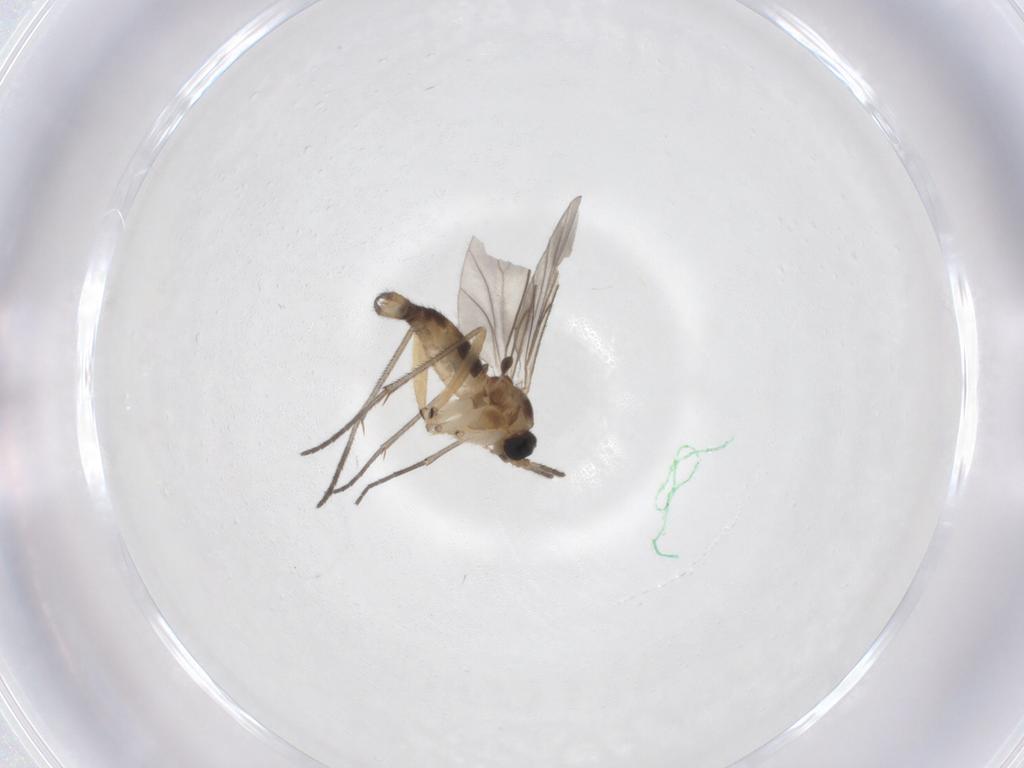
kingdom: Animalia
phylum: Arthropoda
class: Insecta
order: Diptera
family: Sciaridae
